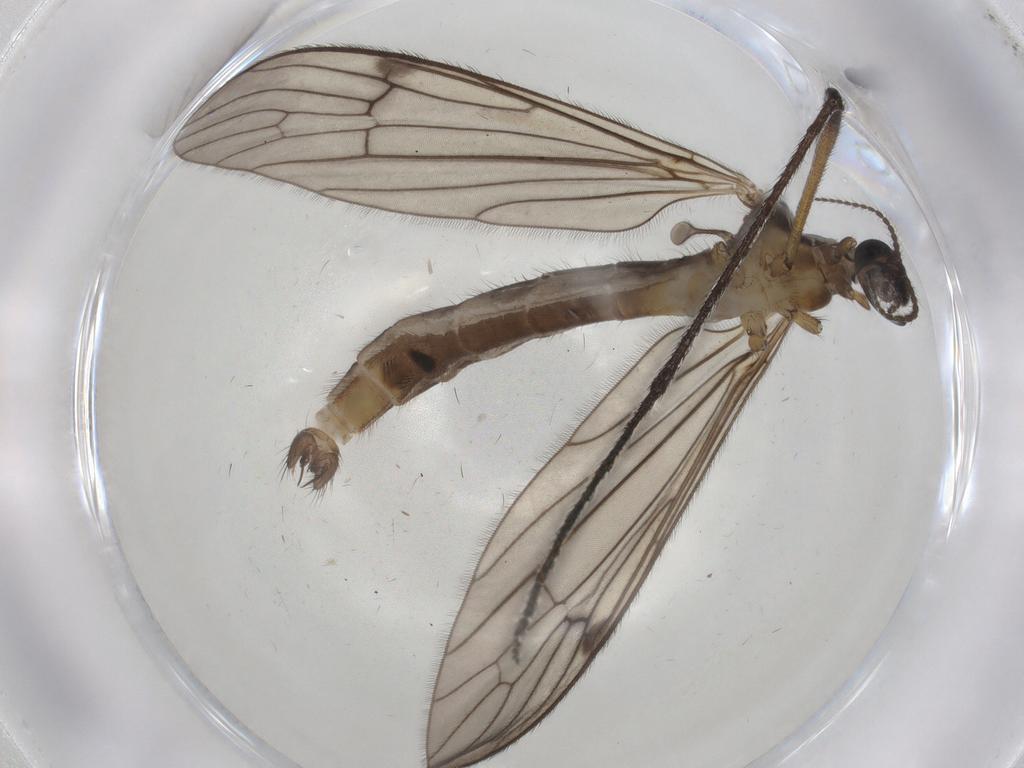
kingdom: Animalia
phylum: Arthropoda
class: Insecta
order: Diptera
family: Limoniidae
